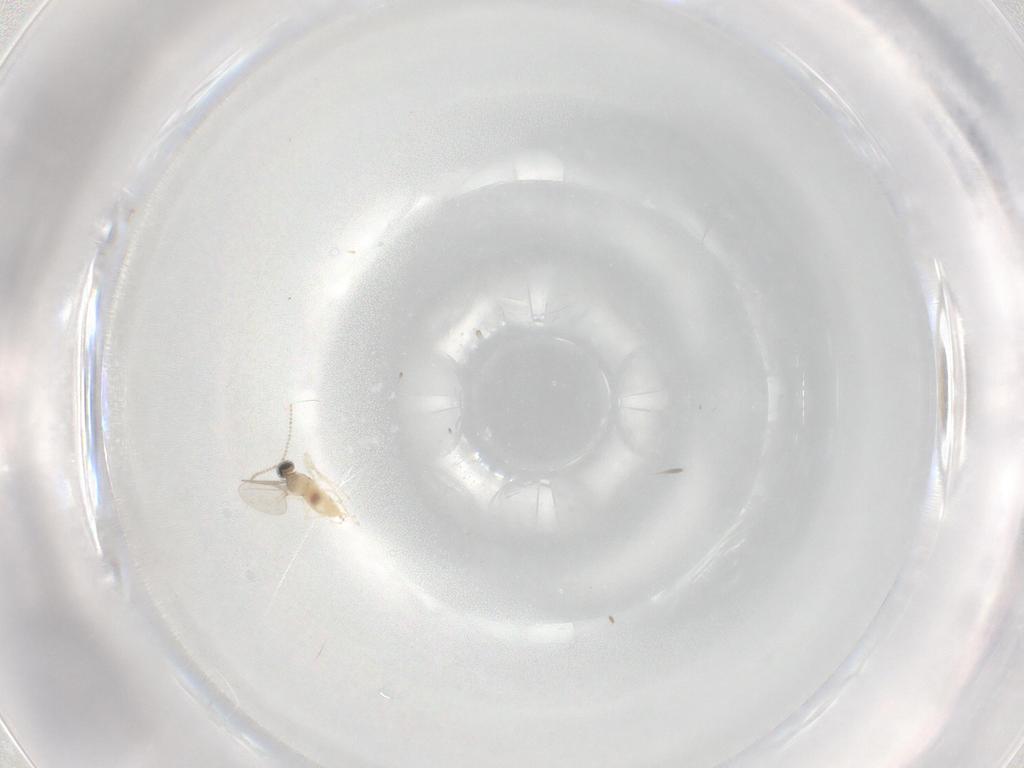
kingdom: Animalia
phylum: Arthropoda
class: Insecta
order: Diptera
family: Cecidomyiidae
